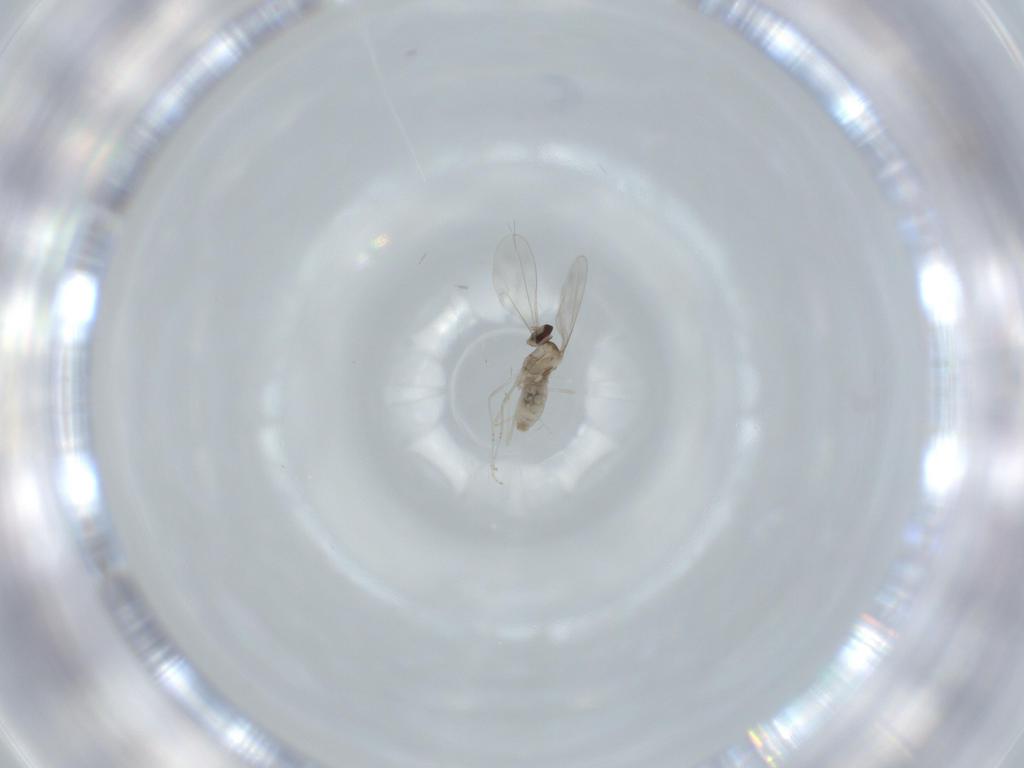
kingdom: Animalia
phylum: Arthropoda
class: Insecta
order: Diptera
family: Cecidomyiidae
